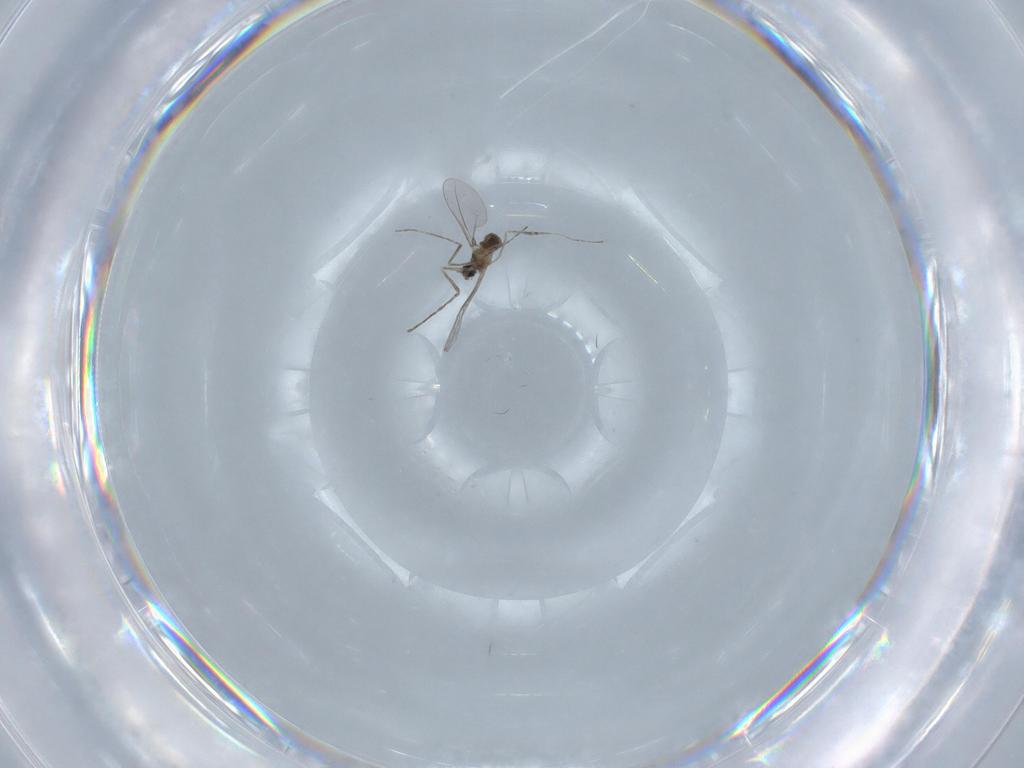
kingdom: Animalia
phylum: Arthropoda
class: Insecta
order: Diptera
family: Cecidomyiidae
